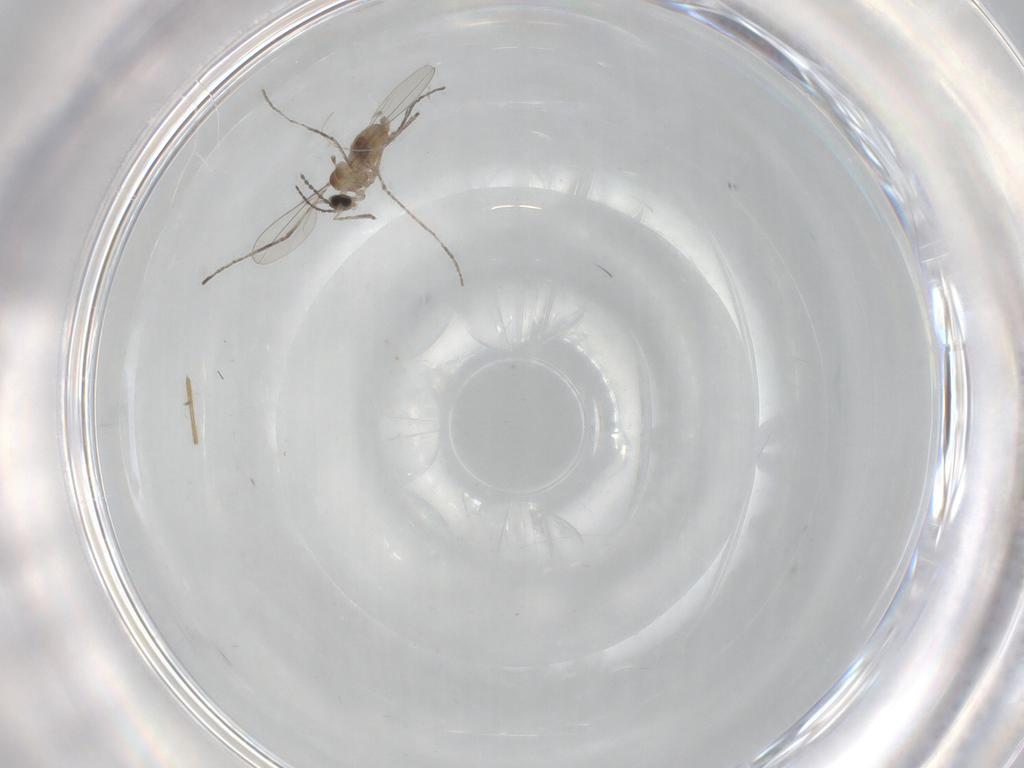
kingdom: Animalia
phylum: Arthropoda
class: Insecta
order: Diptera
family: Cecidomyiidae
